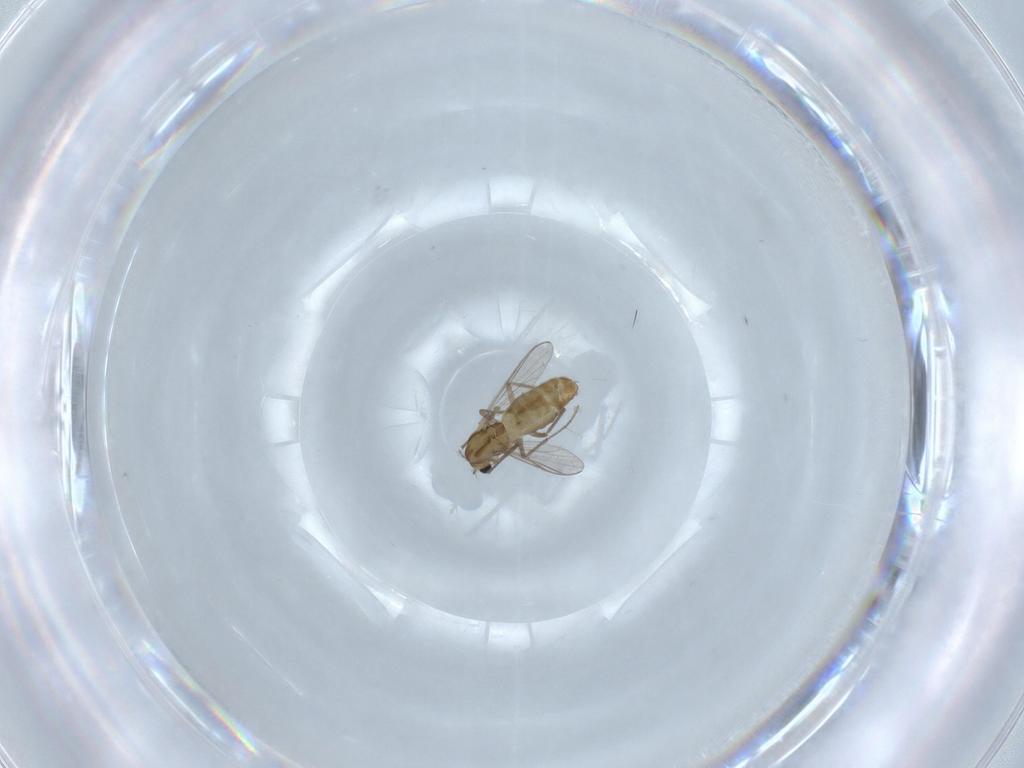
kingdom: Animalia
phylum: Arthropoda
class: Insecta
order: Diptera
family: Chironomidae
